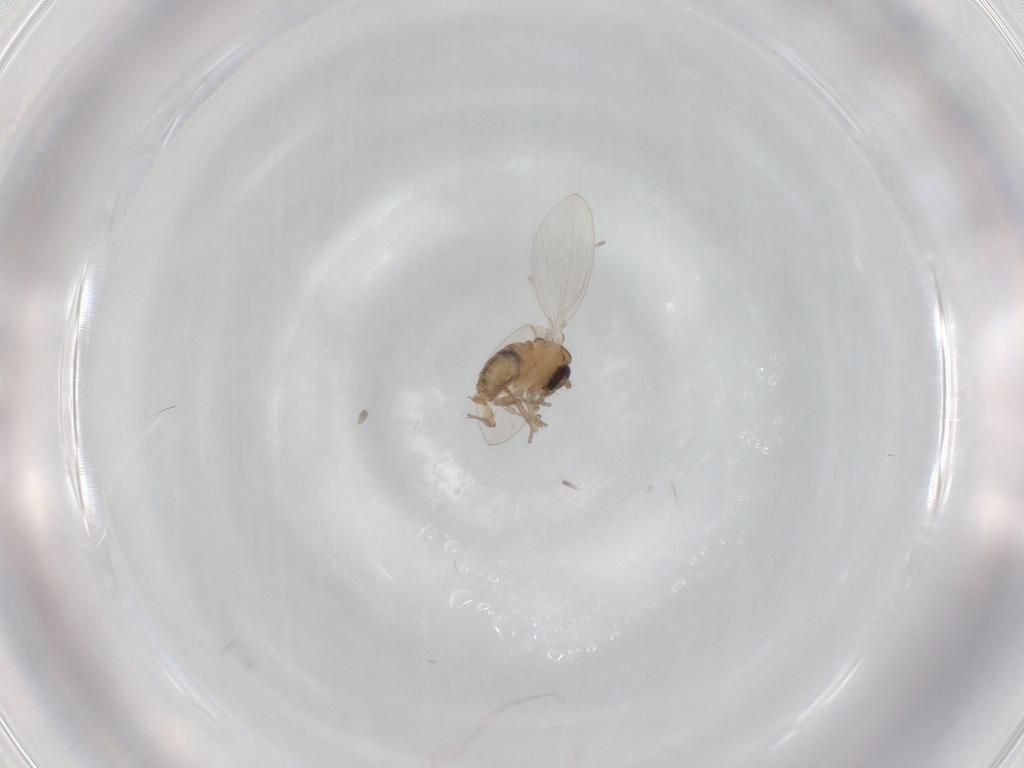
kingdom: Animalia
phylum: Arthropoda
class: Insecta
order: Diptera
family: Psychodidae
